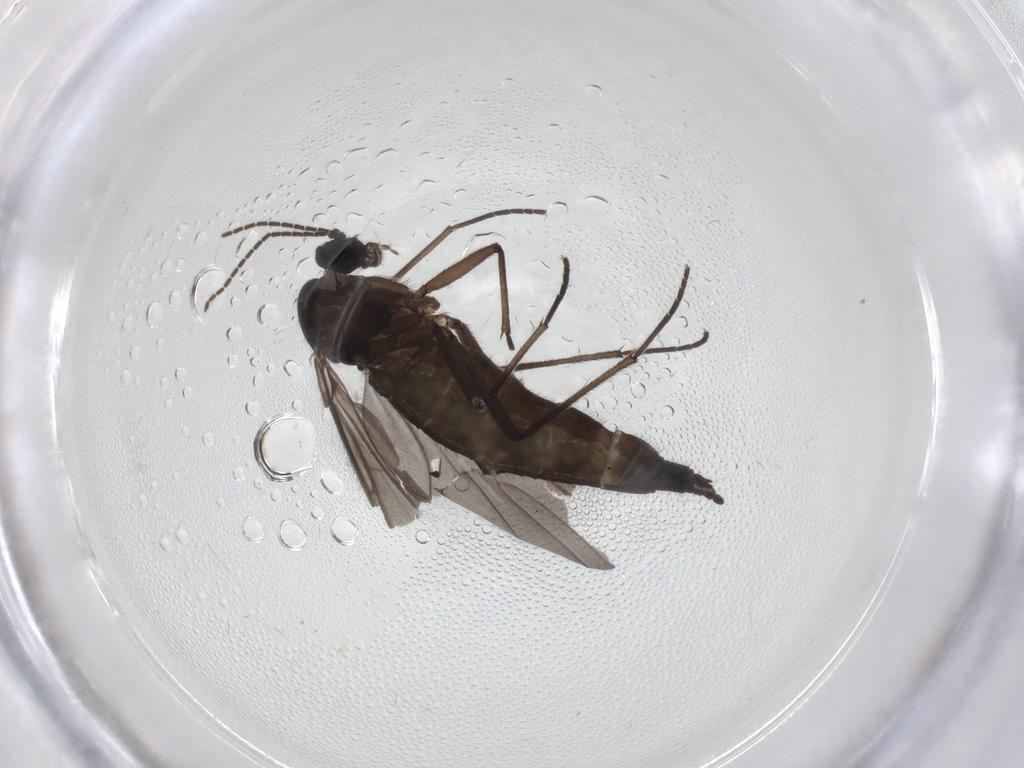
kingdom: Animalia
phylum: Arthropoda
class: Insecta
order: Diptera
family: Sciaridae
